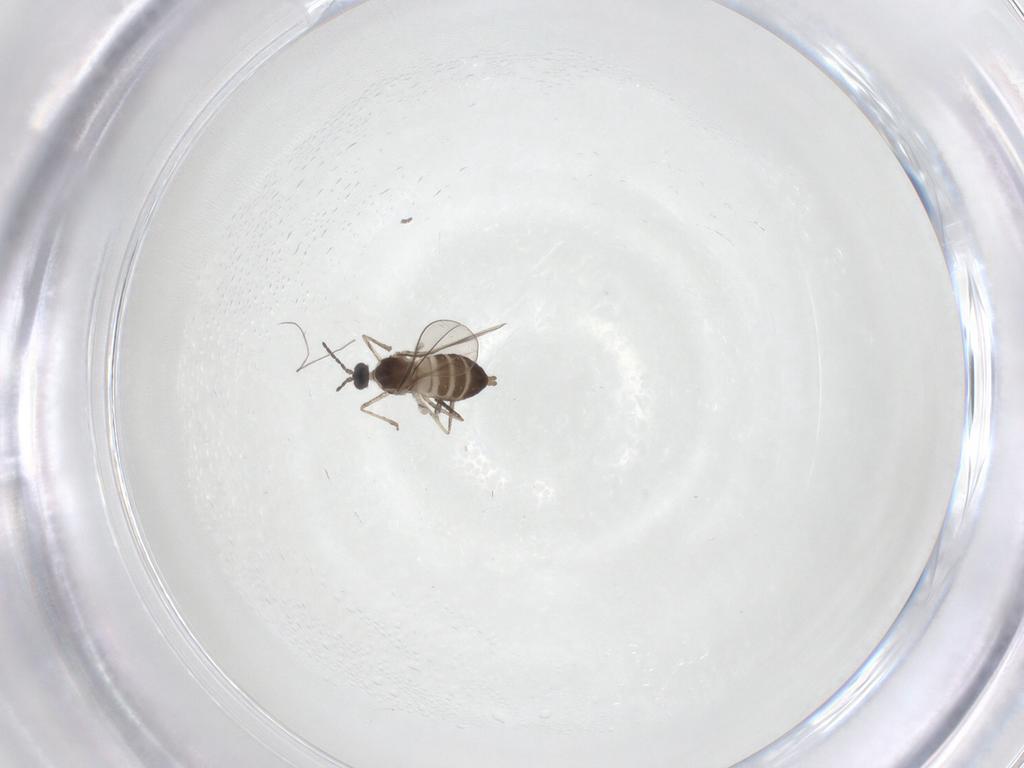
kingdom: Animalia
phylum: Arthropoda
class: Insecta
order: Diptera
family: Cecidomyiidae
